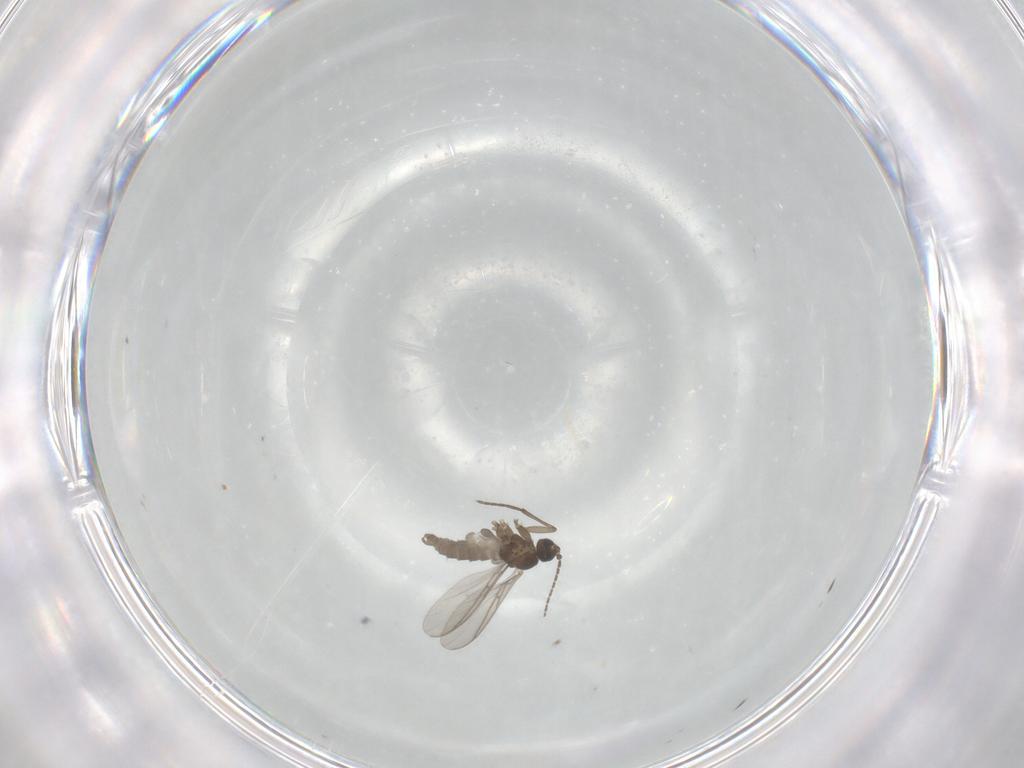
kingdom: Animalia
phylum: Arthropoda
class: Insecta
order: Diptera
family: Sciaridae
